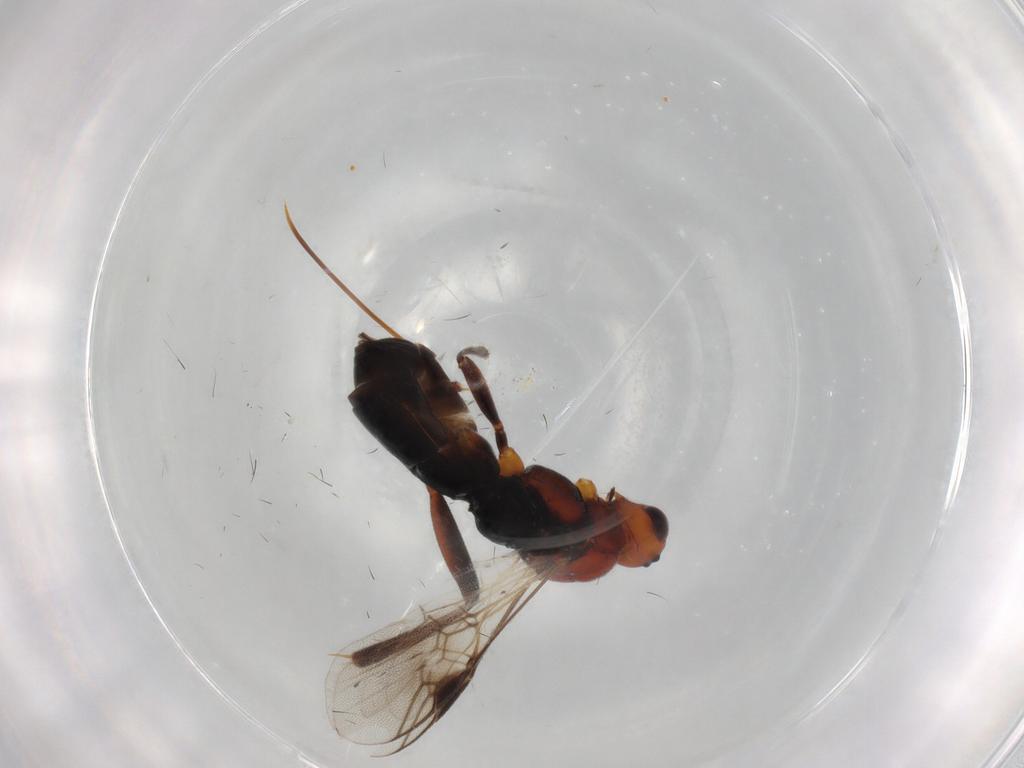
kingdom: Animalia
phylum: Arthropoda
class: Insecta
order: Hymenoptera
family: Braconidae
